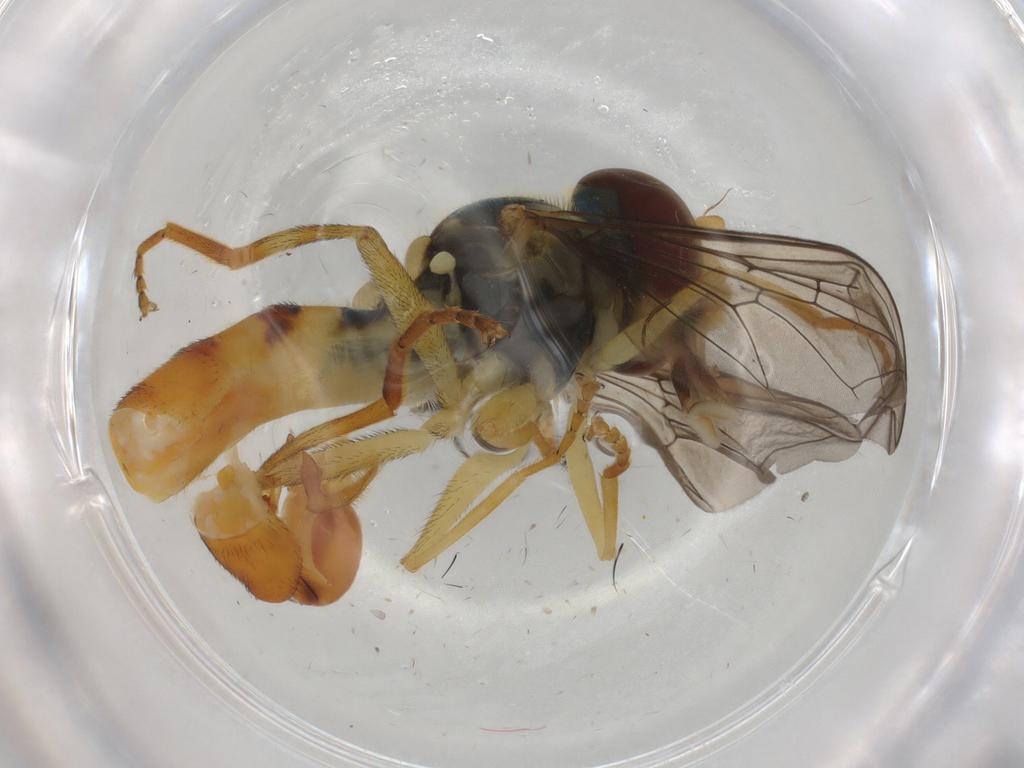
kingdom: Animalia
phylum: Arthropoda
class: Insecta
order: Diptera
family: Syrphidae
